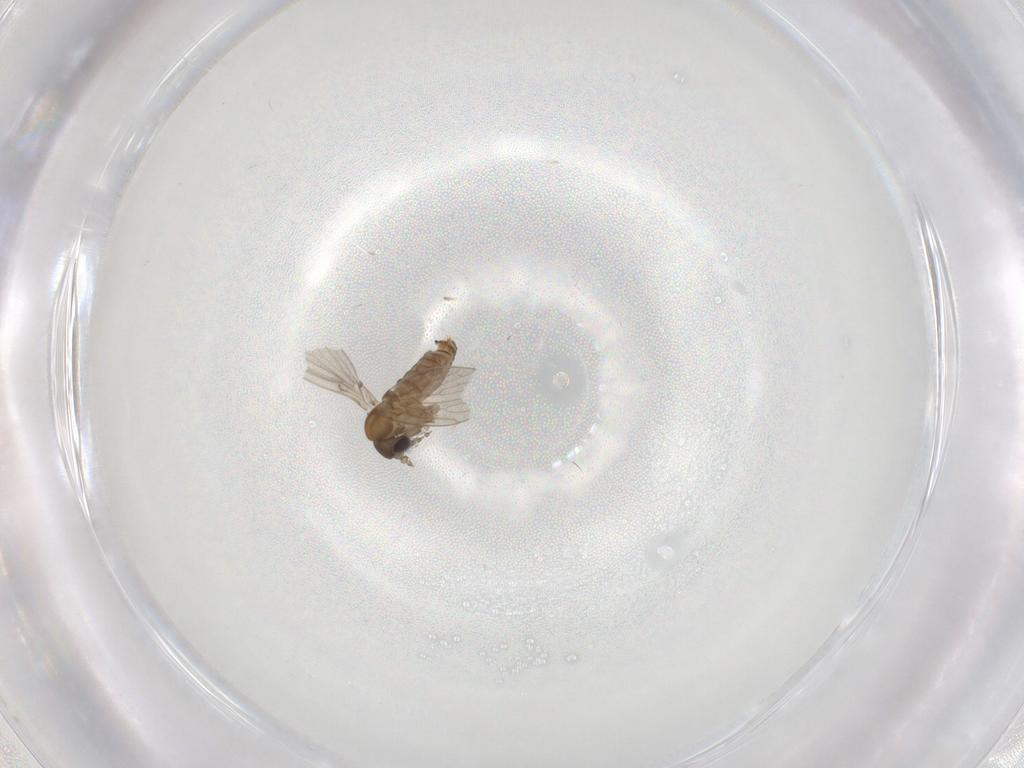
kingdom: Animalia
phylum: Arthropoda
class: Insecta
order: Diptera
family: Chironomidae
